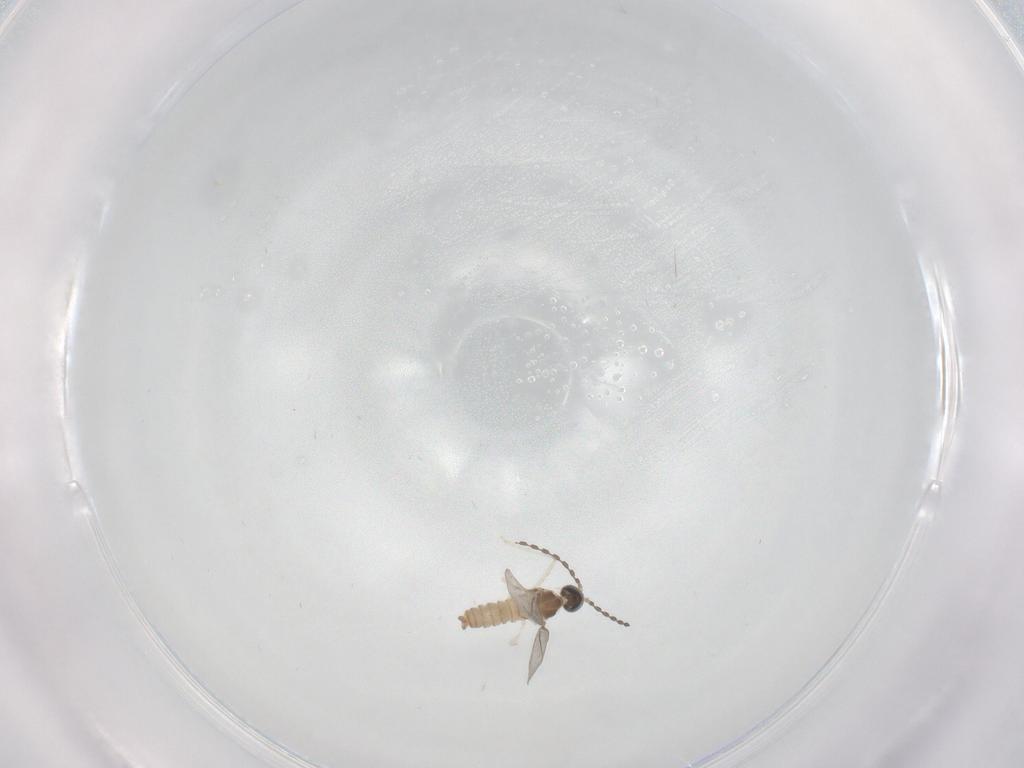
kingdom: Animalia
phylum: Arthropoda
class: Insecta
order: Diptera
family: Cecidomyiidae
